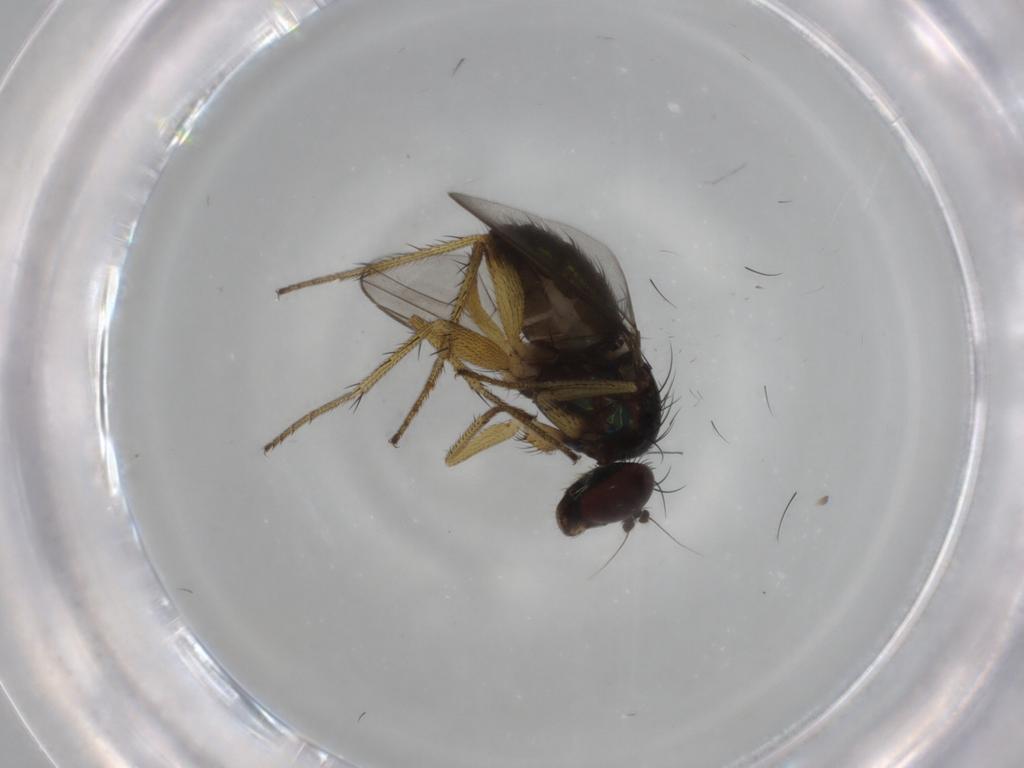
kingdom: Animalia
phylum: Arthropoda
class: Insecta
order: Diptera
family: Dolichopodidae
